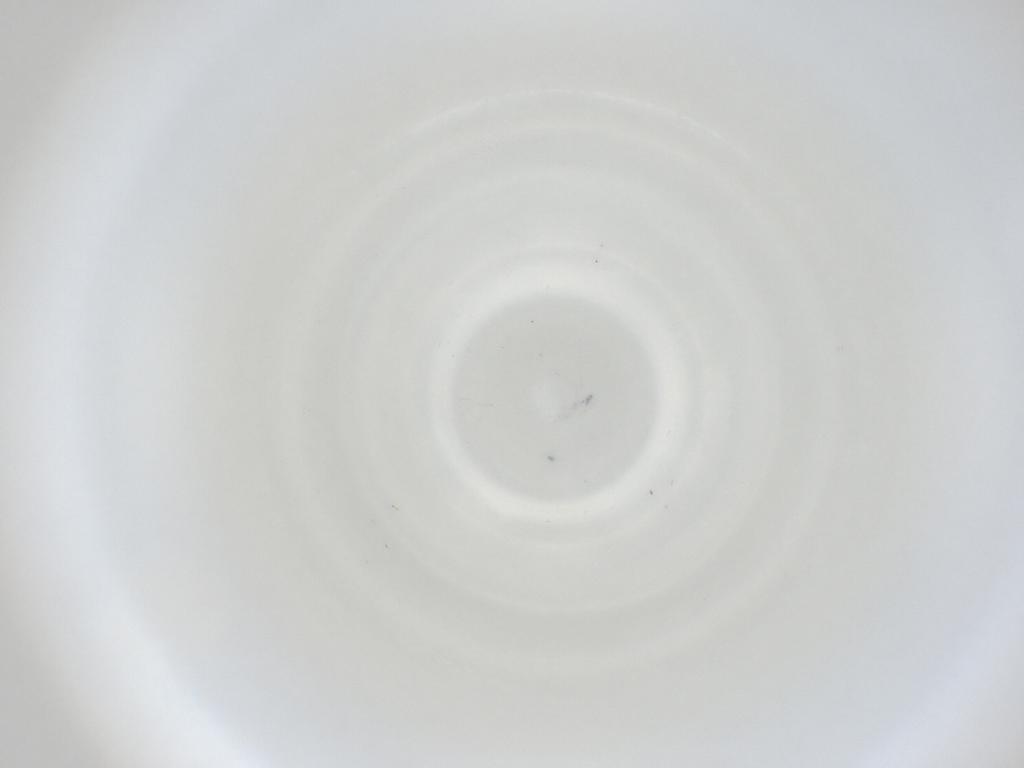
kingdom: Animalia
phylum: Arthropoda
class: Insecta
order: Diptera
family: Cecidomyiidae
